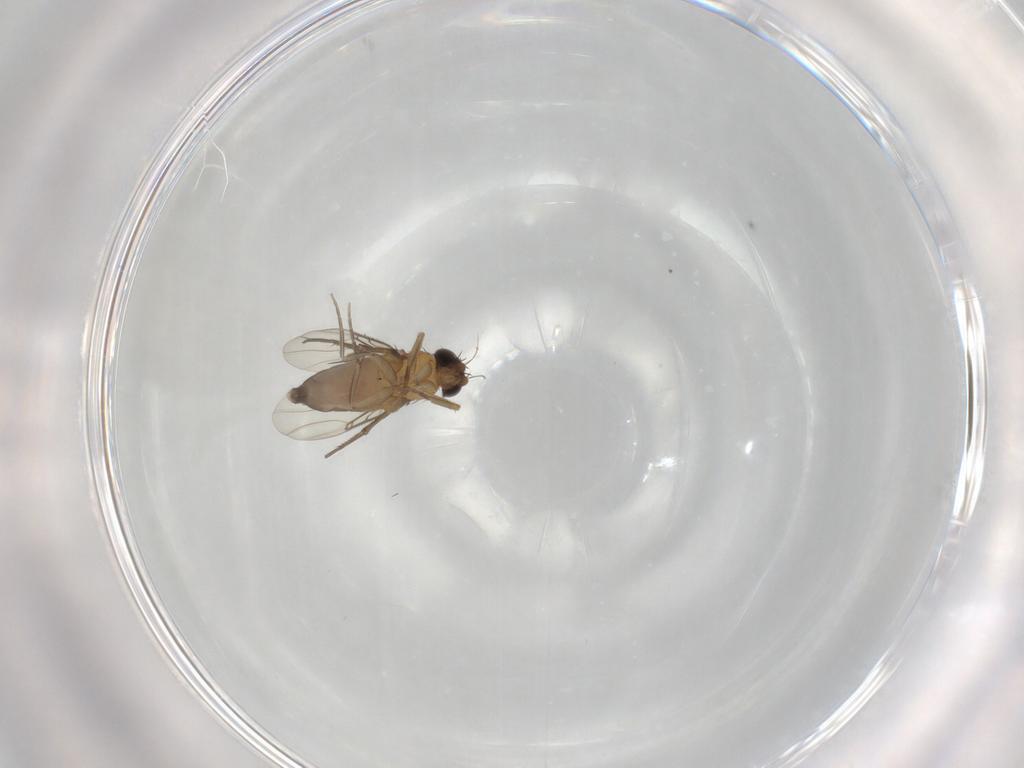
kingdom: Animalia
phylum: Arthropoda
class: Insecta
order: Diptera
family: Phoridae
